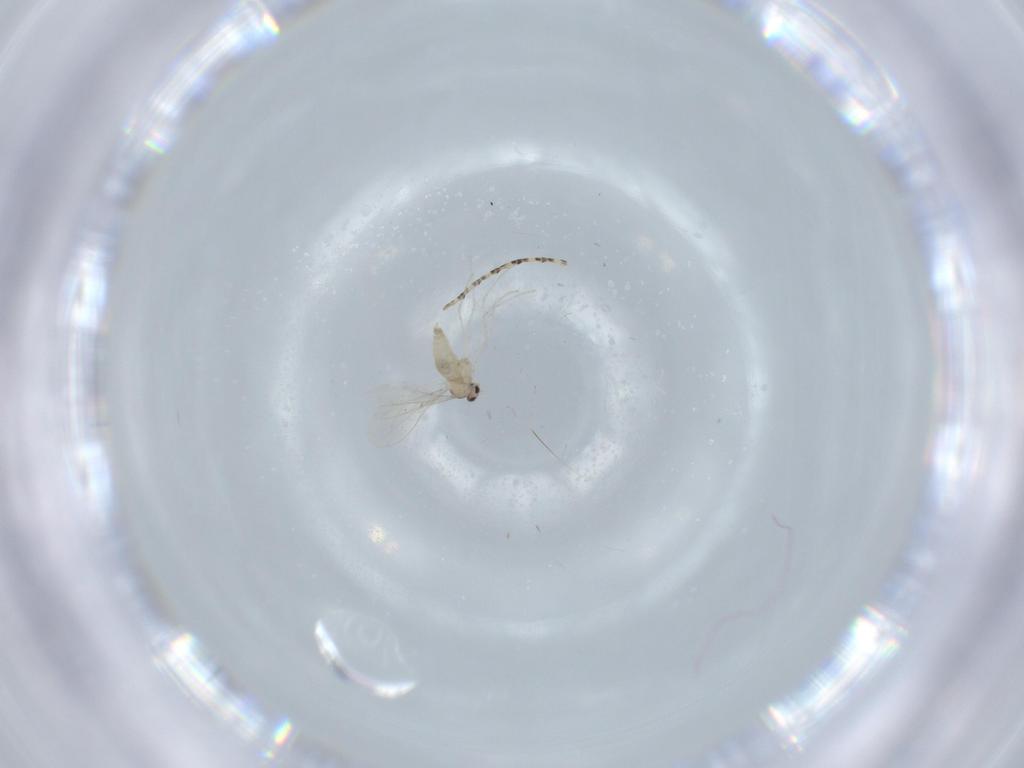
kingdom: Animalia
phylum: Arthropoda
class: Insecta
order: Diptera
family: Cecidomyiidae
